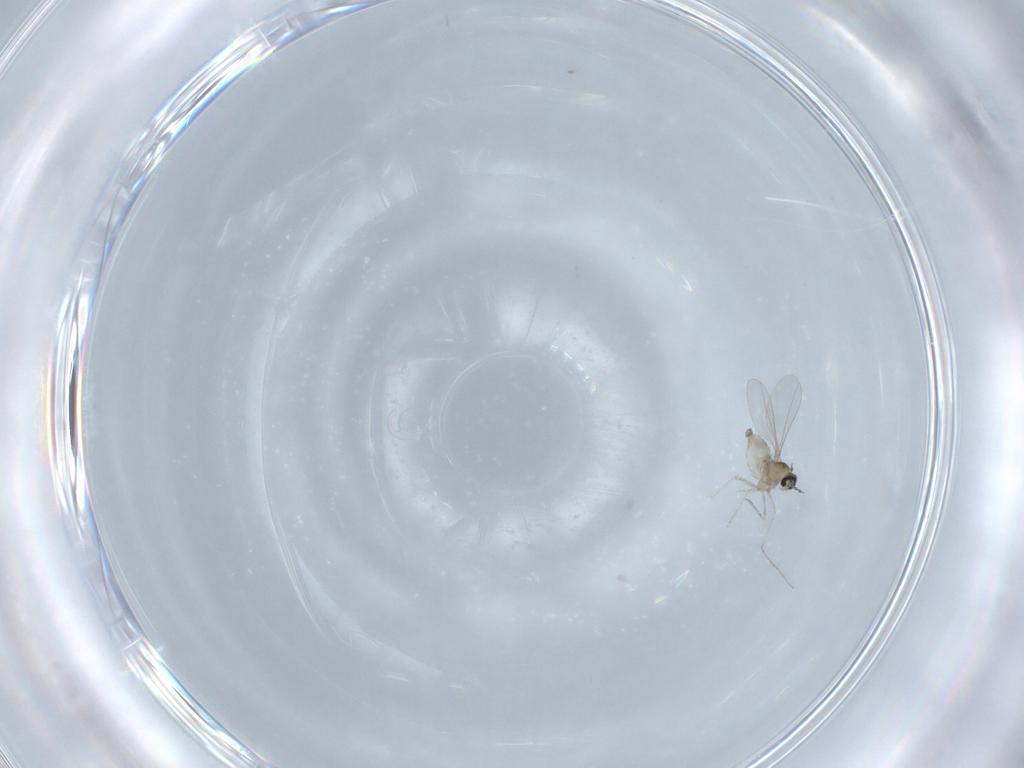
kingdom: Animalia
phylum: Arthropoda
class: Insecta
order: Diptera
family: Cecidomyiidae
